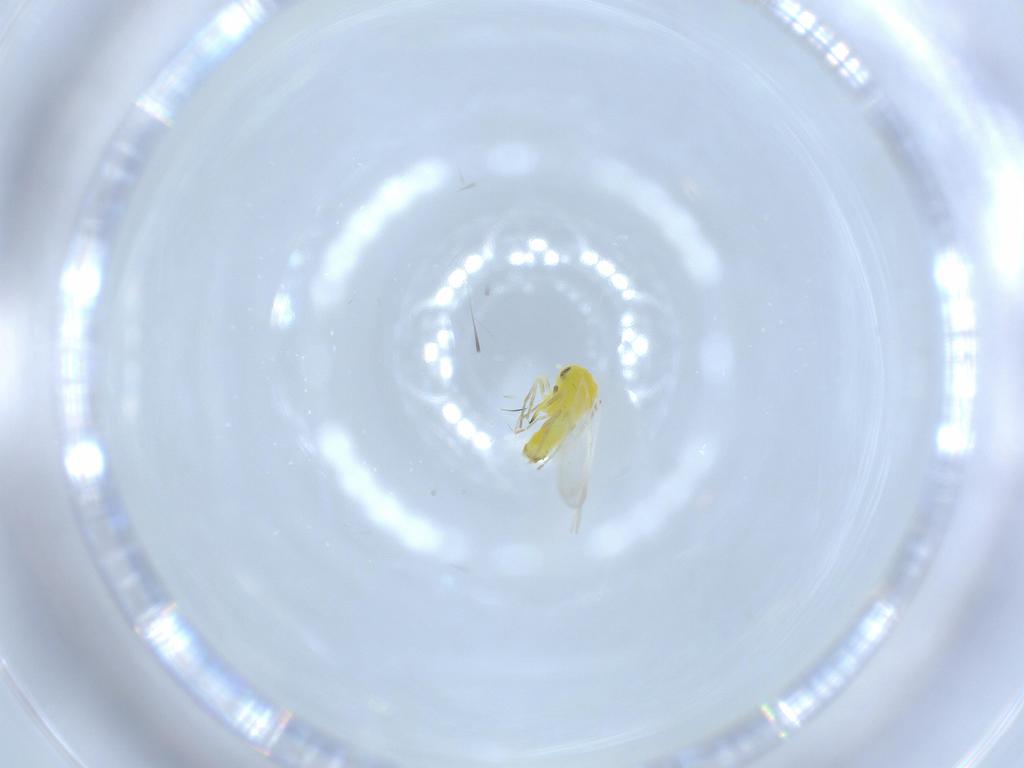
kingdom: Animalia
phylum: Arthropoda
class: Insecta
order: Hemiptera
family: Aleyrodidae
